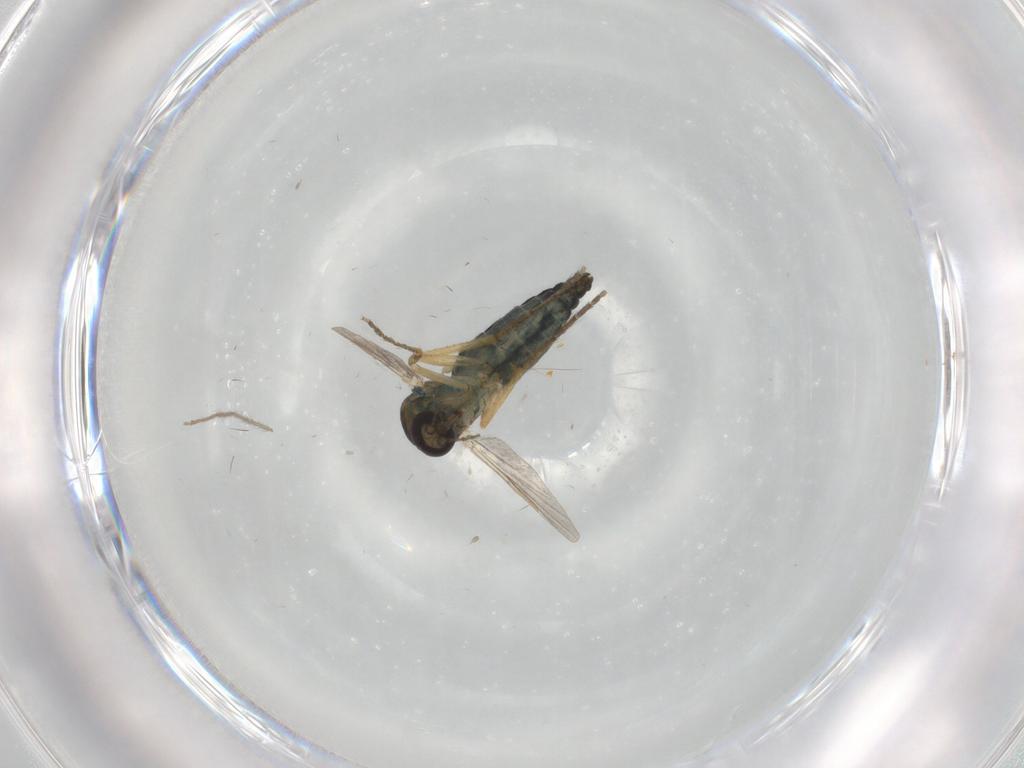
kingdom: Animalia
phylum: Arthropoda
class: Insecta
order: Diptera
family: Ceratopogonidae
